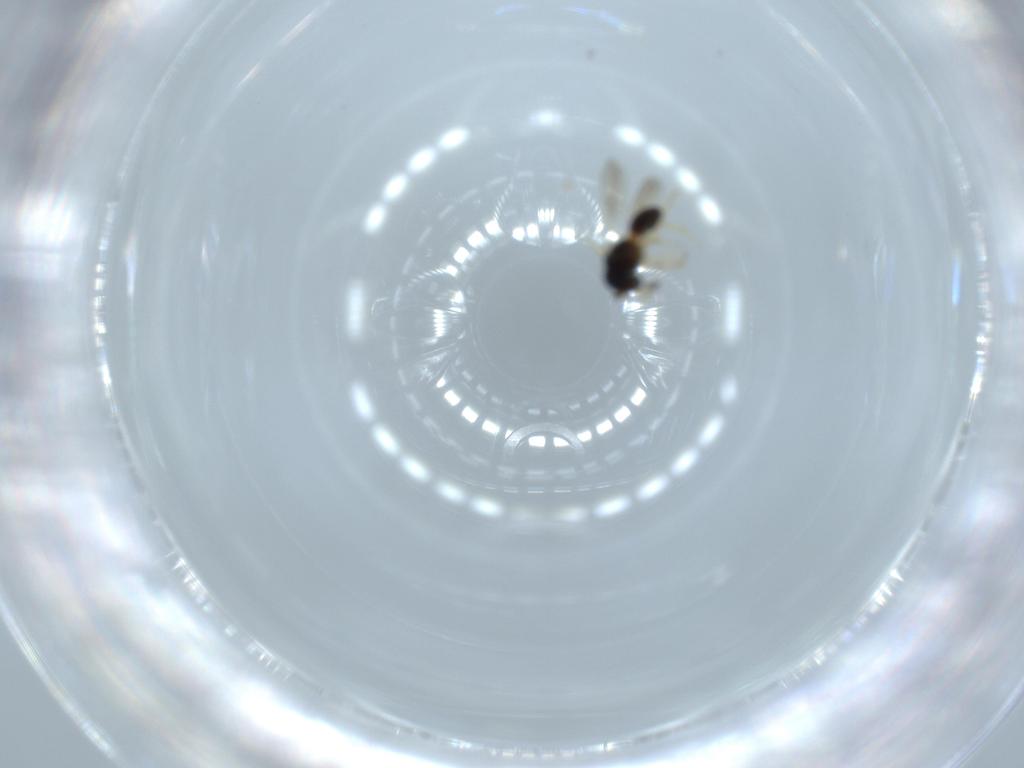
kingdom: Animalia
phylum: Arthropoda
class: Insecta
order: Hymenoptera
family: Scelionidae
